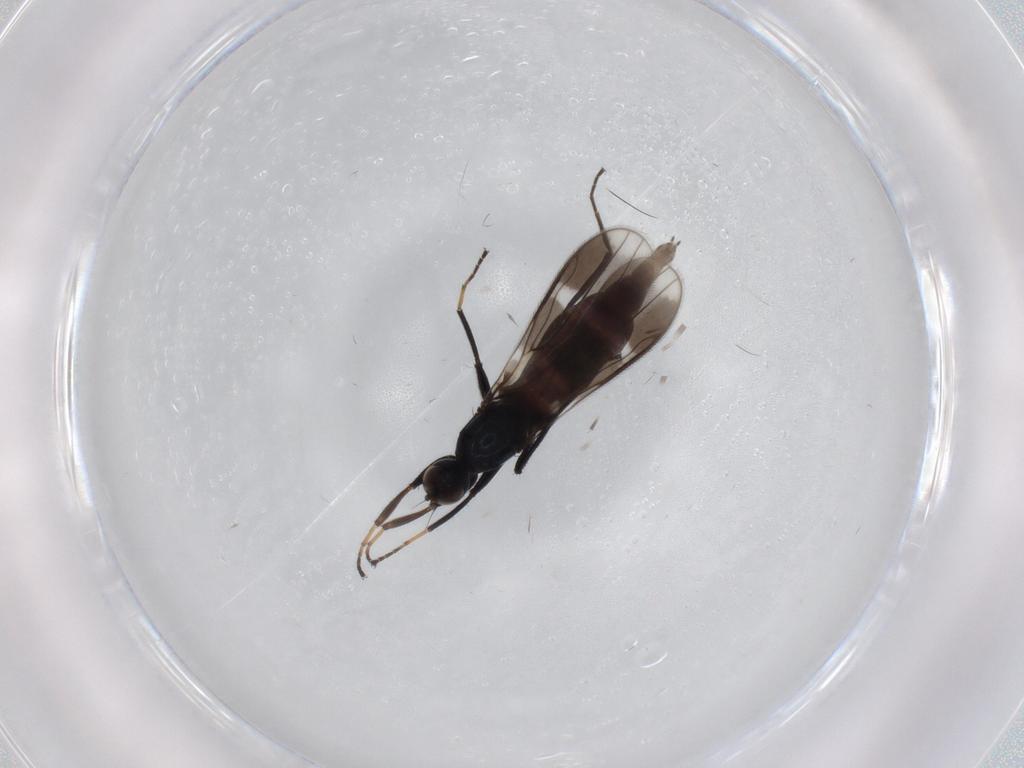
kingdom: Animalia
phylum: Arthropoda
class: Insecta
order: Diptera
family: Hybotidae
